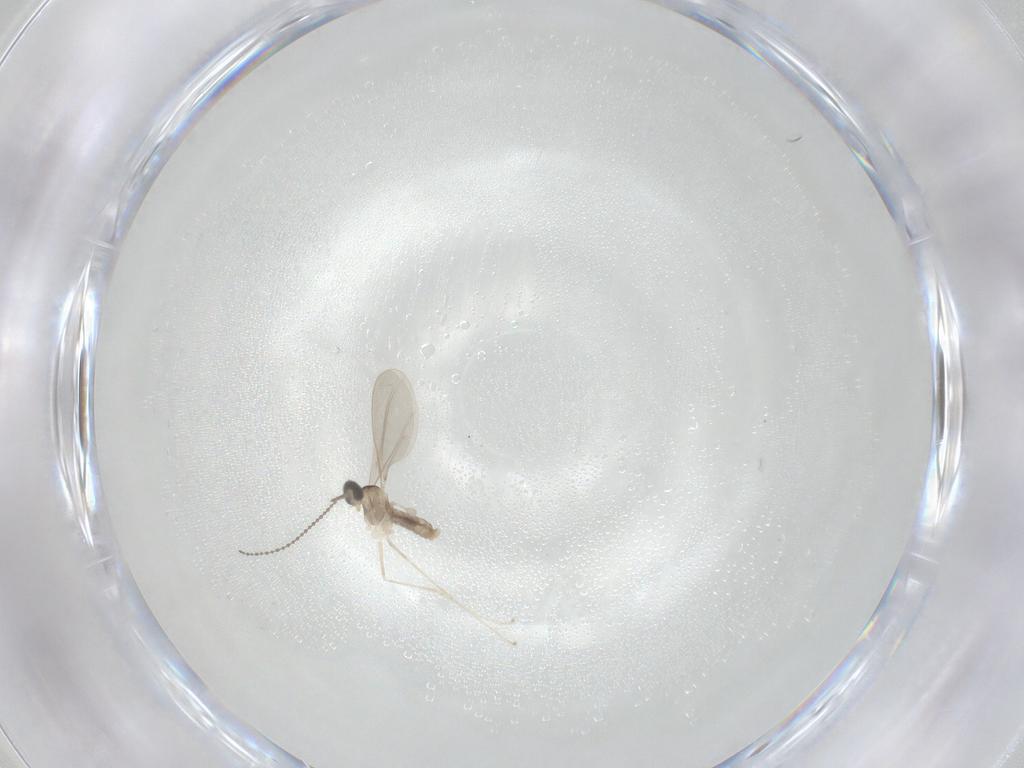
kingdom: Animalia
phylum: Arthropoda
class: Insecta
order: Diptera
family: Cecidomyiidae
